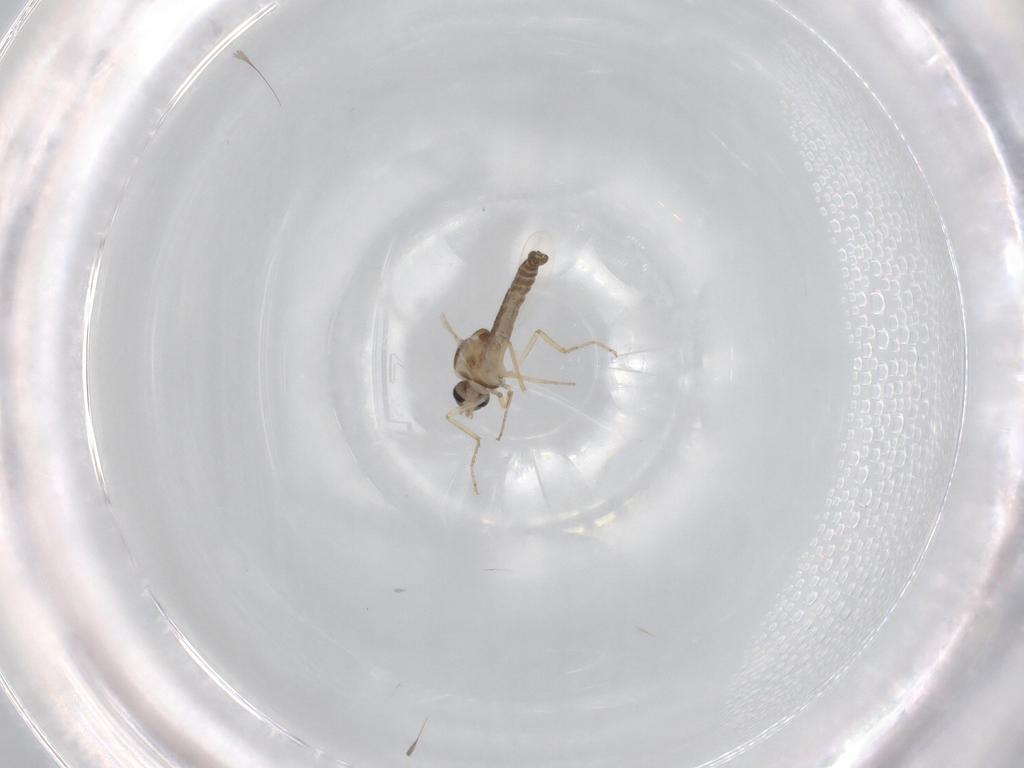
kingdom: Animalia
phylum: Arthropoda
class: Insecta
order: Diptera
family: Ceratopogonidae
